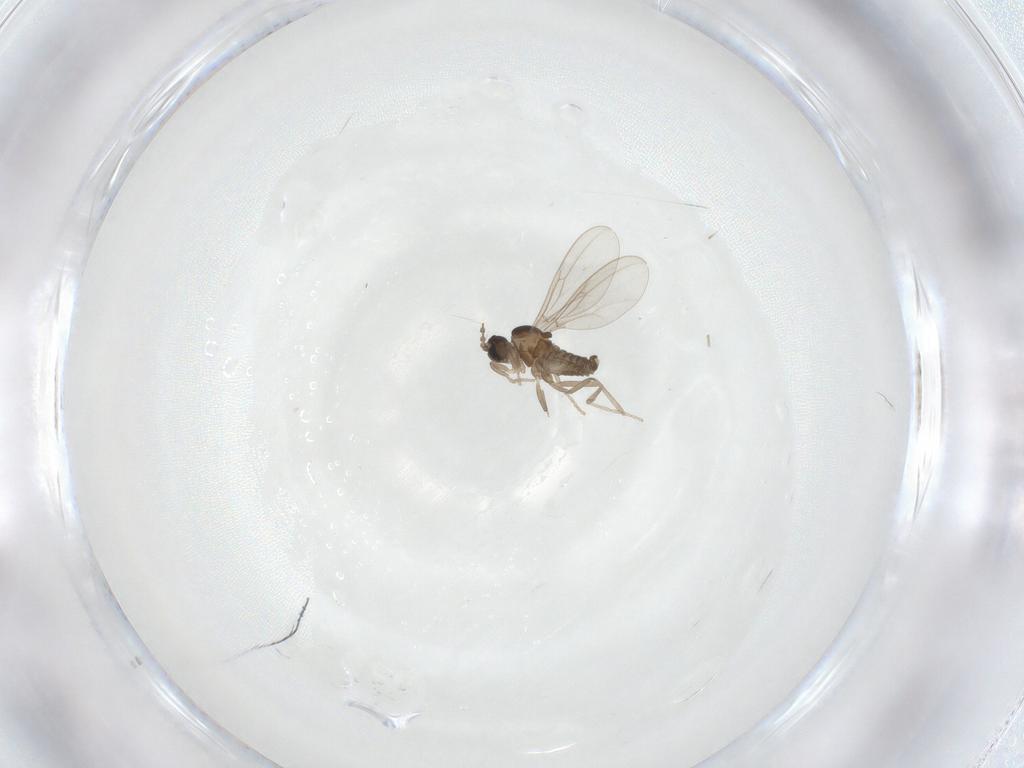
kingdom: Animalia
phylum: Arthropoda
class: Insecta
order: Diptera
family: Cecidomyiidae
